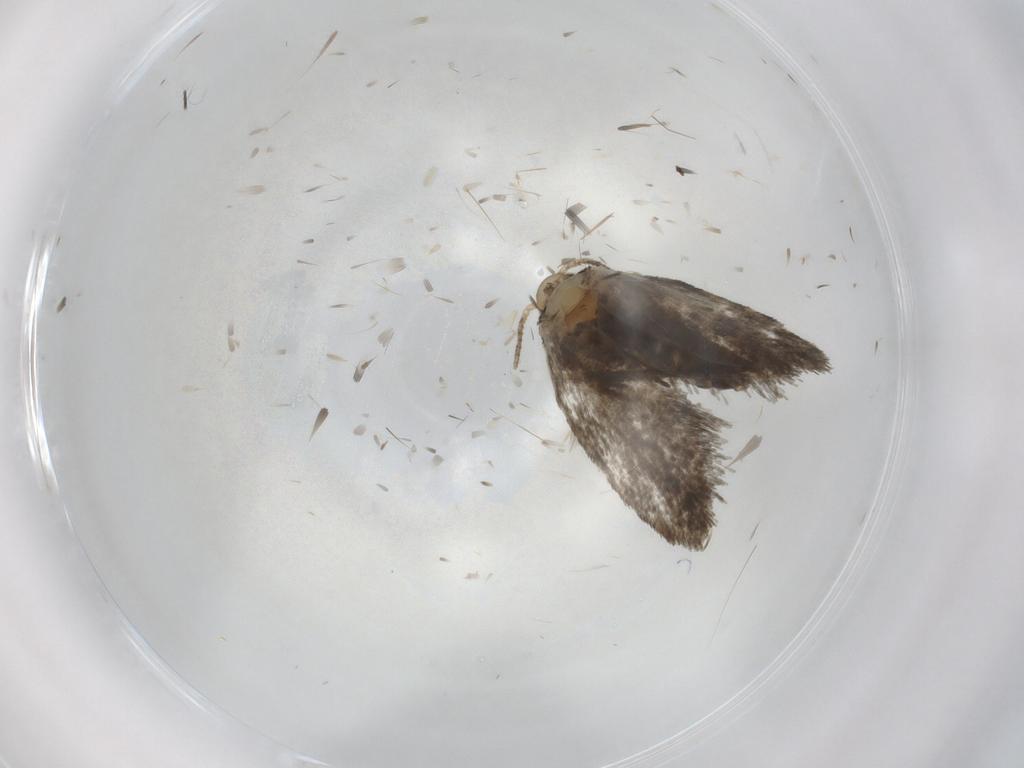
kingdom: Animalia
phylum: Arthropoda
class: Insecta
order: Lepidoptera
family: Psychidae
